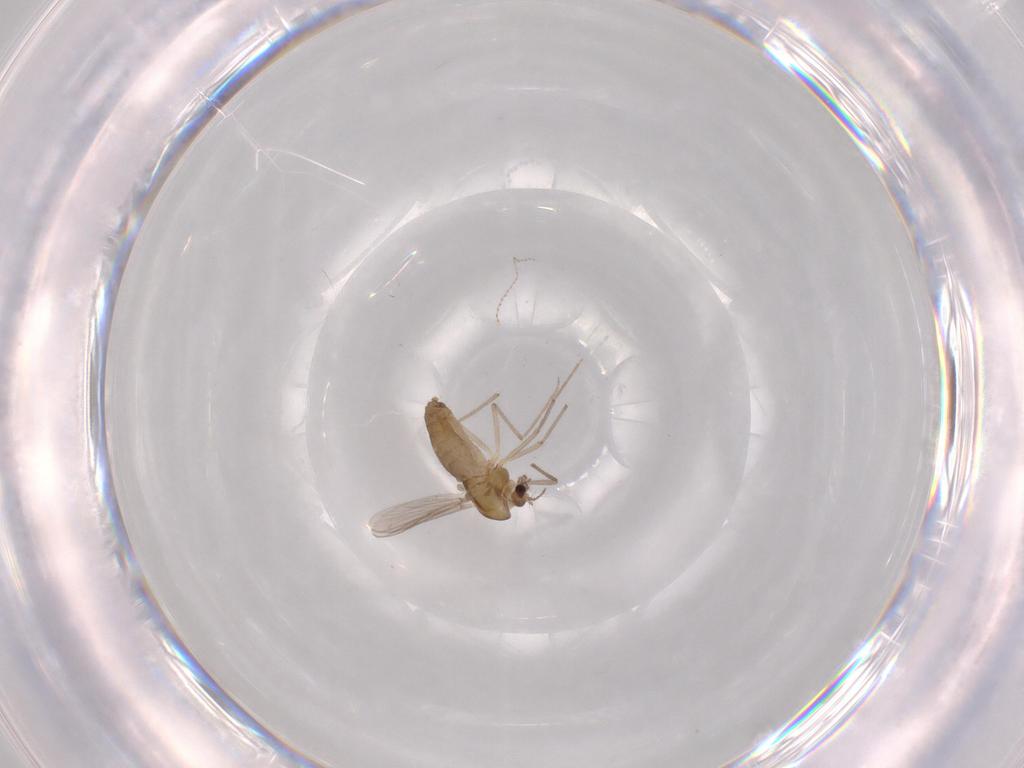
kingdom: Animalia
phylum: Arthropoda
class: Insecta
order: Diptera
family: Chironomidae
